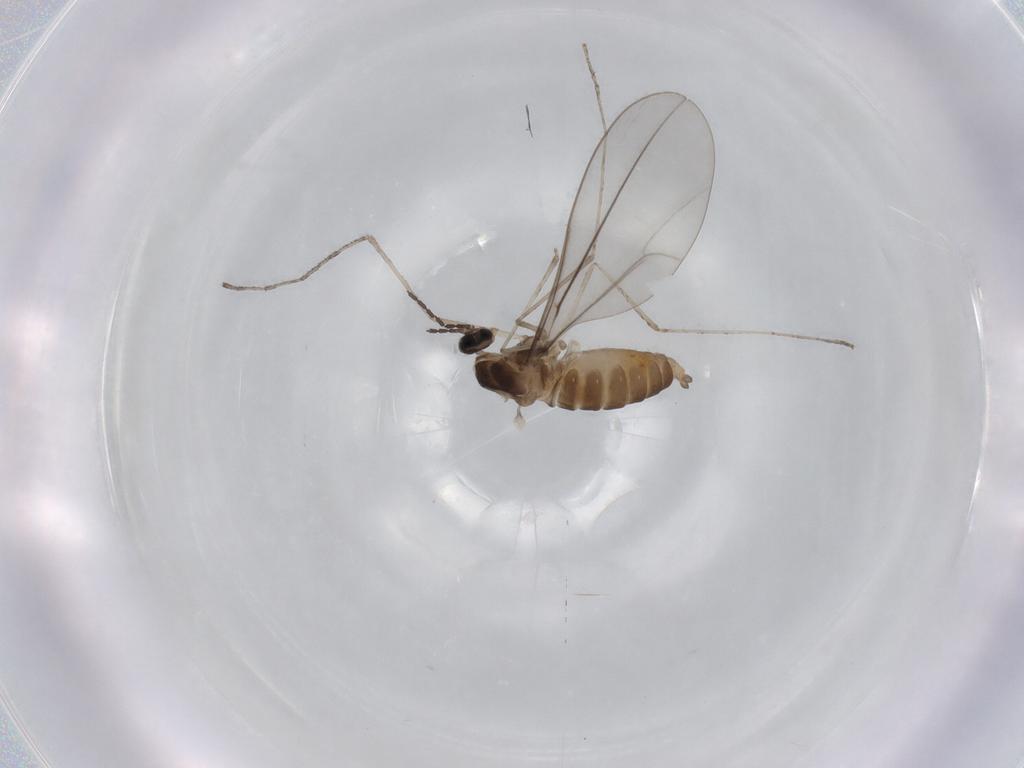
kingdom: Animalia
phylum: Arthropoda
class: Insecta
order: Diptera
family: Cecidomyiidae
